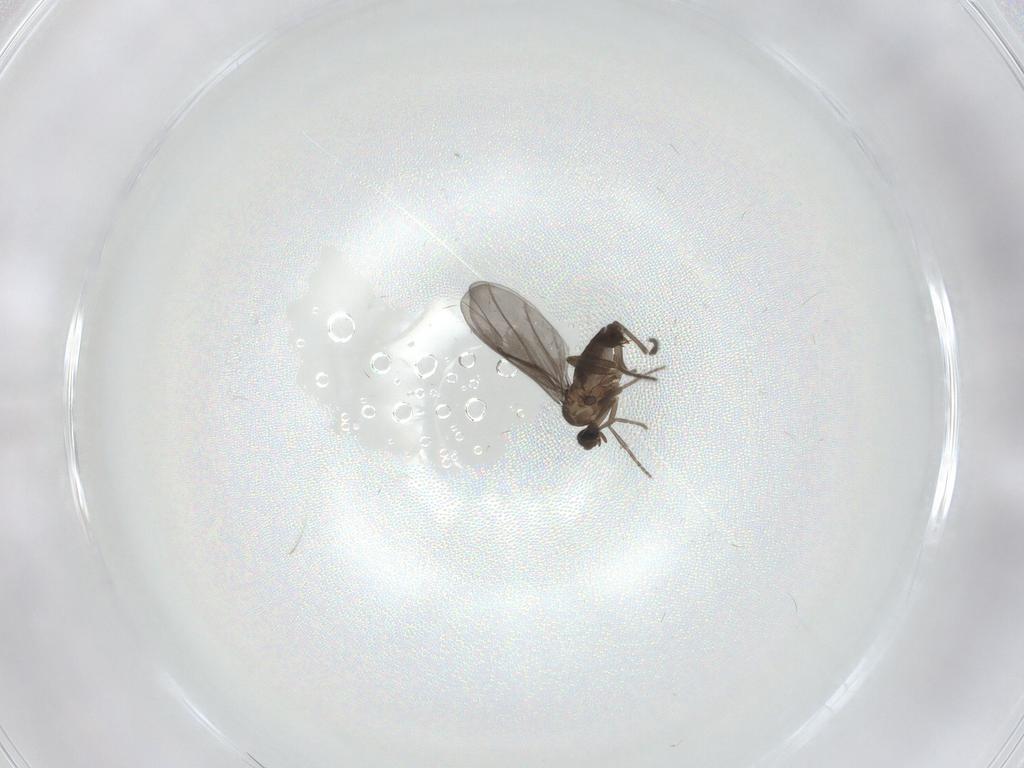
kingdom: Animalia
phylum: Arthropoda
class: Insecta
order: Diptera
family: Phoridae
